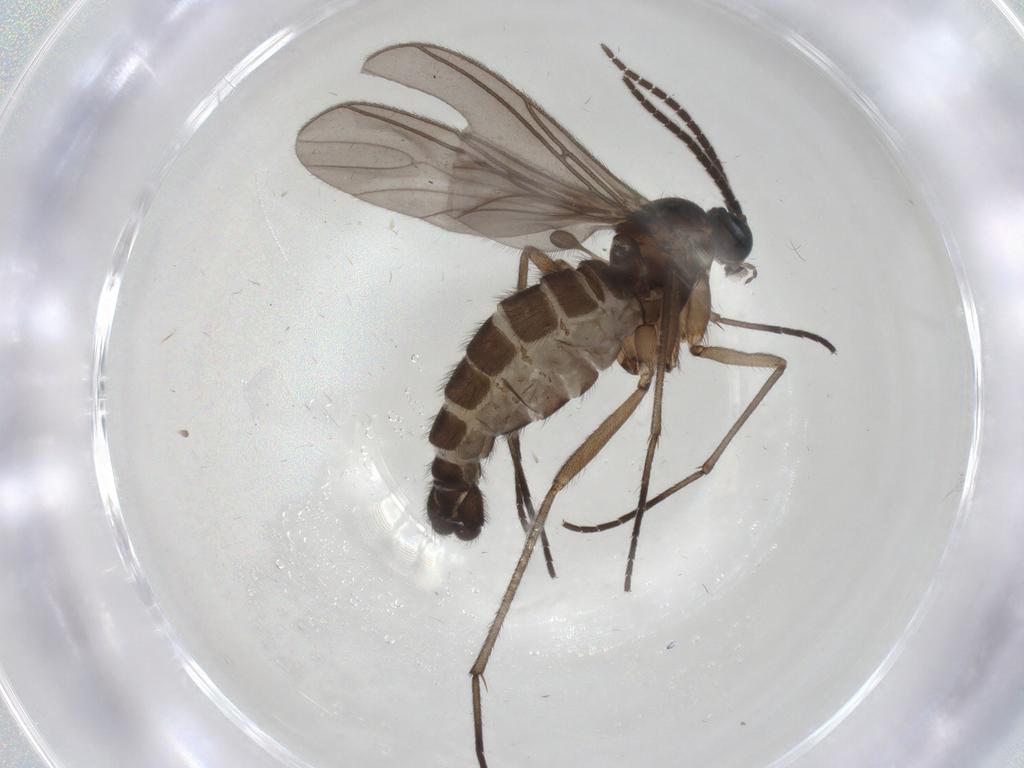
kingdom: Animalia
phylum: Arthropoda
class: Insecta
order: Diptera
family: Sciaridae
